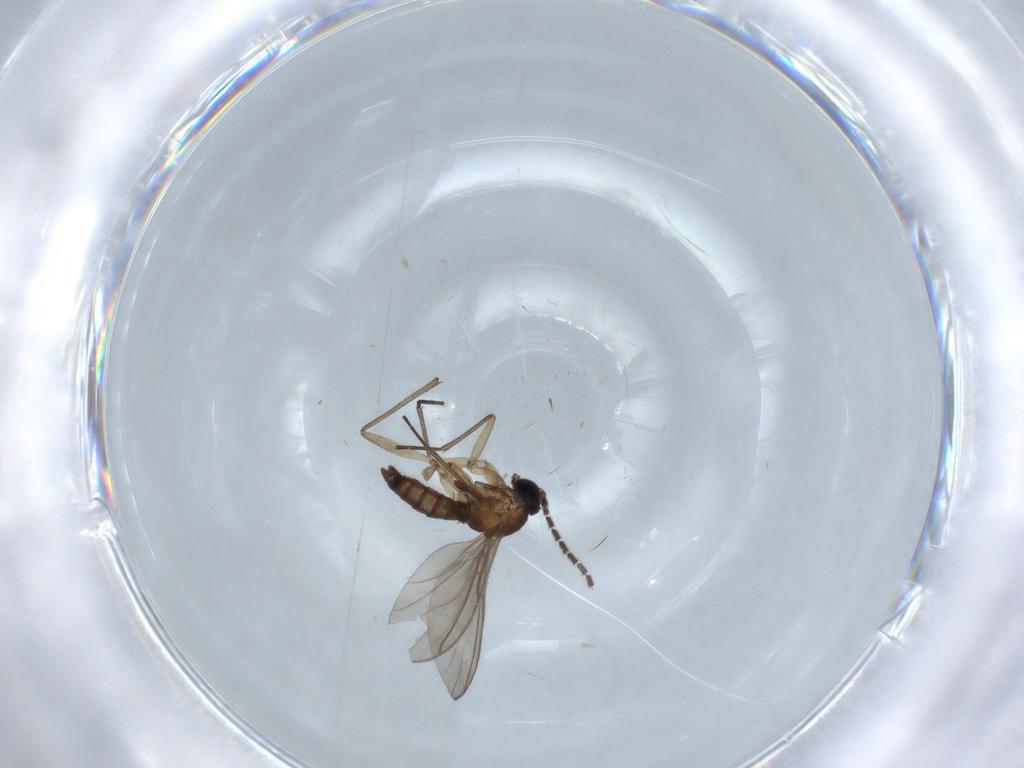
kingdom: Animalia
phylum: Arthropoda
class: Insecta
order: Diptera
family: Sciaridae
